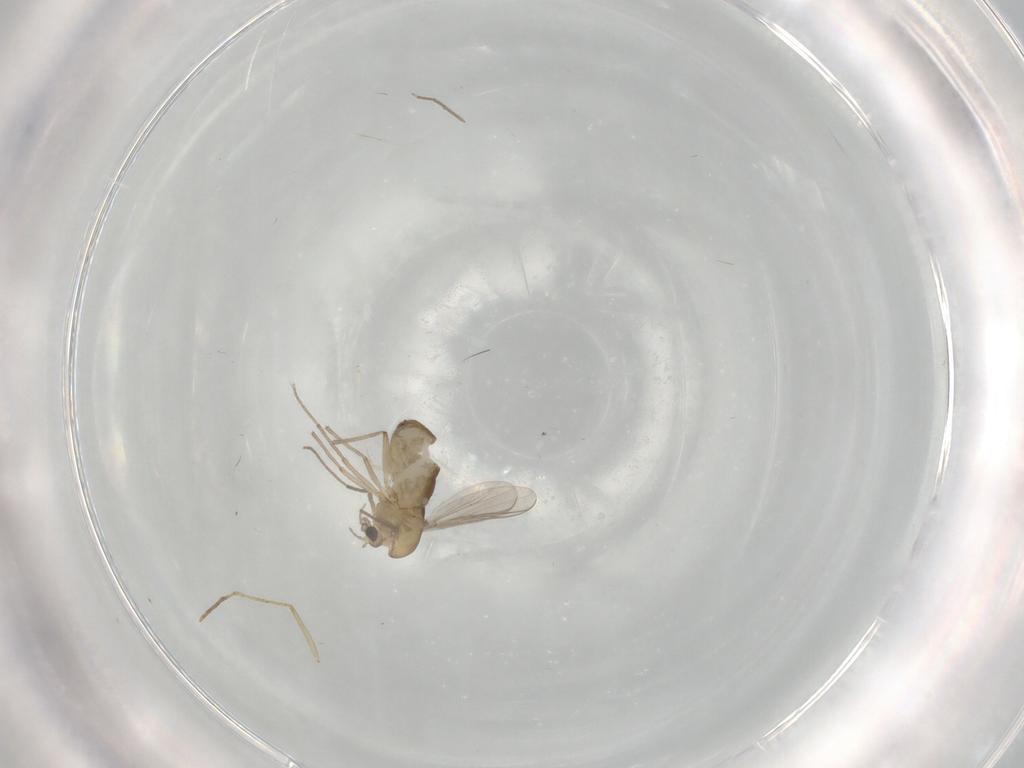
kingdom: Animalia
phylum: Arthropoda
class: Insecta
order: Diptera
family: Chironomidae
